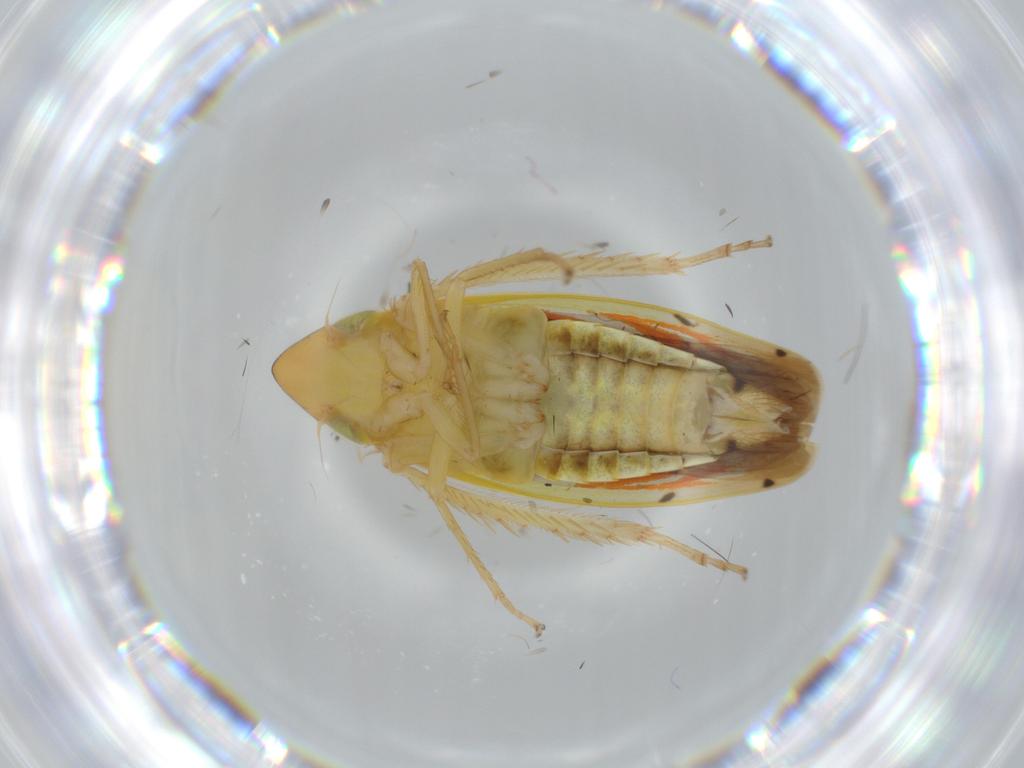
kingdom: Animalia
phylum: Arthropoda
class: Insecta
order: Hemiptera
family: Cicadellidae
